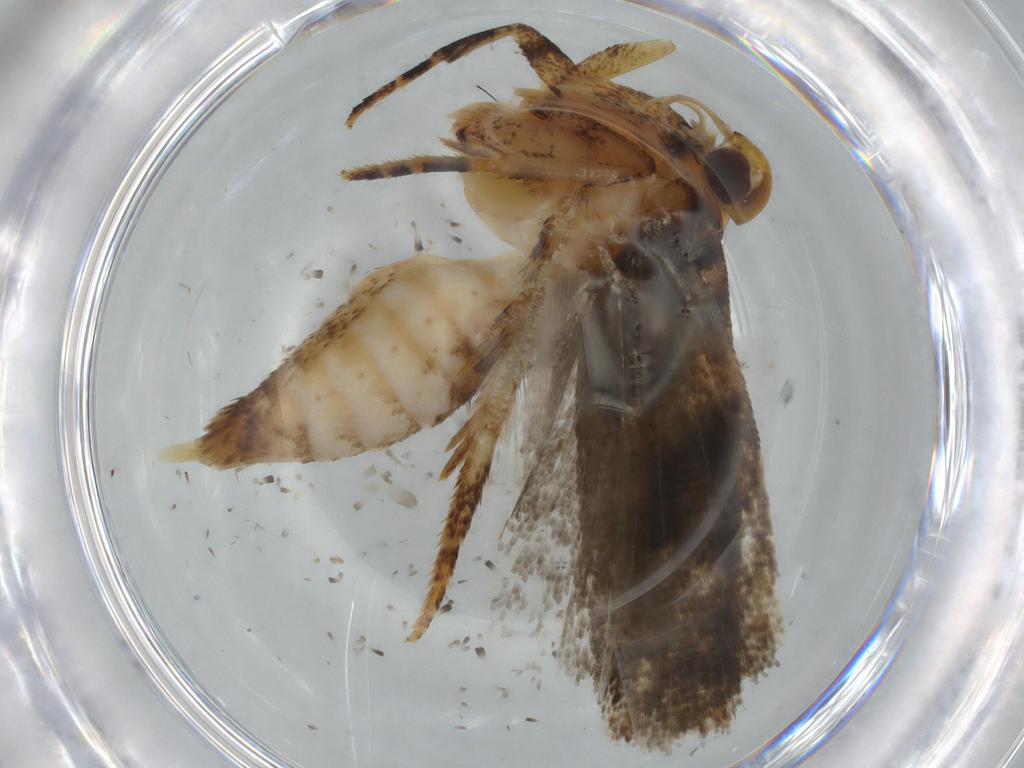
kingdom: Animalia
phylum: Arthropoda
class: Insecta
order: Lepidoptera
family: Gelechiidae
